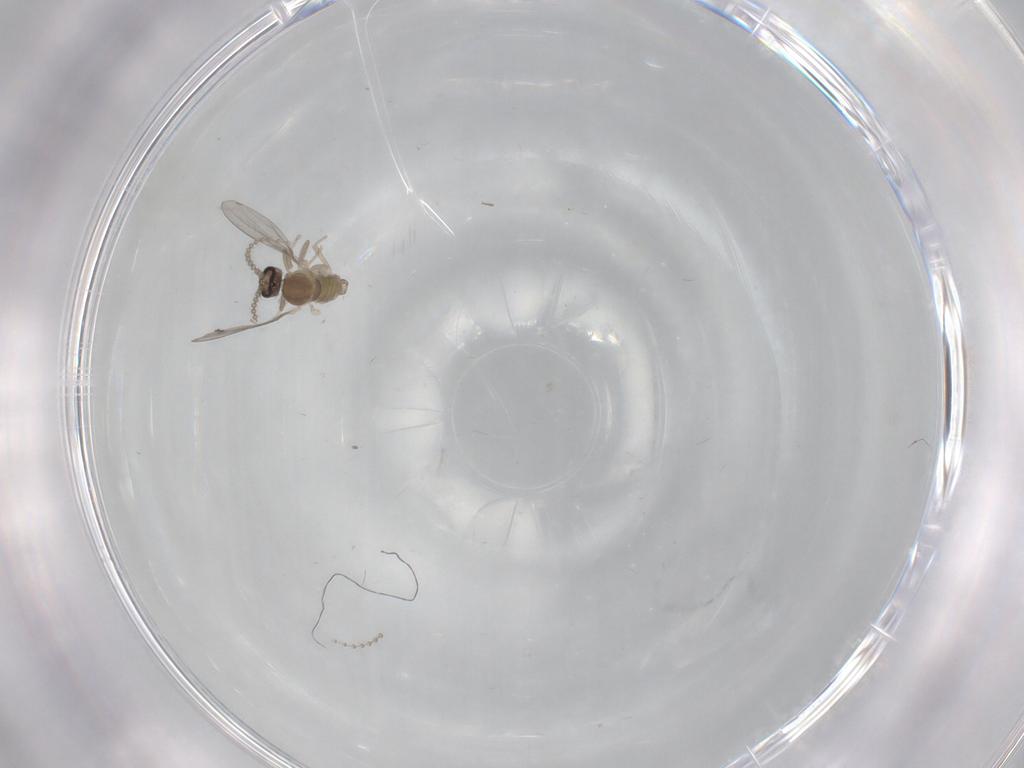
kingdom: Animalia
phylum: Arthropoda
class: Insecta
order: Diptera
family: Cecidomyiidae
